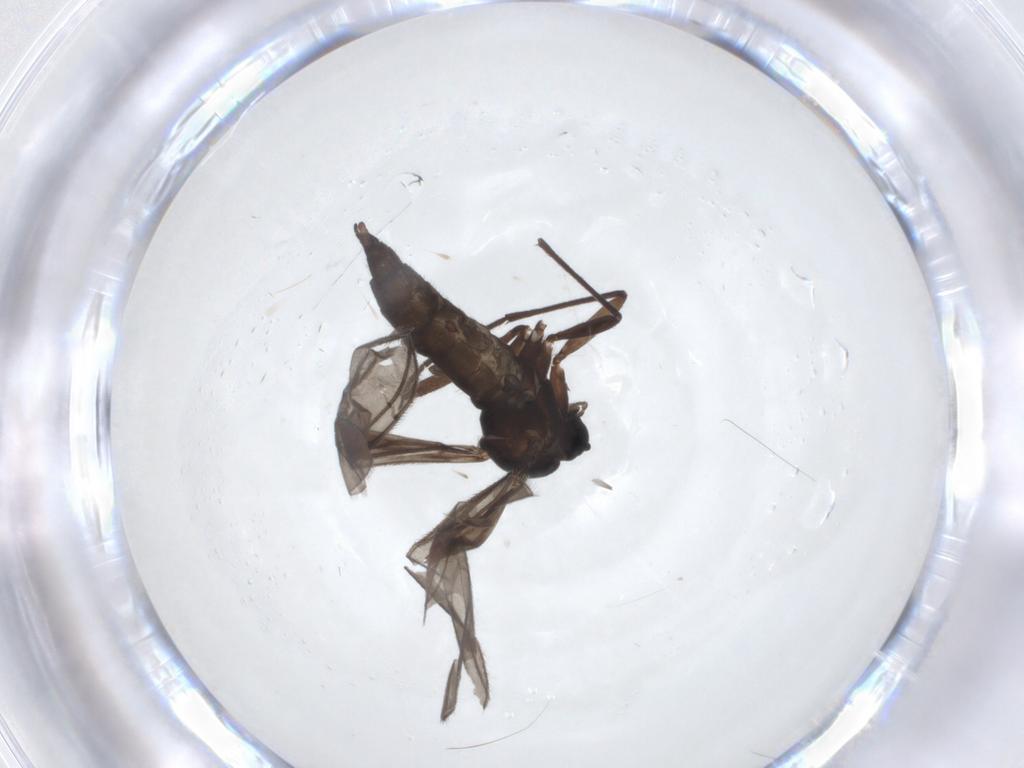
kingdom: Animalia
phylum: Arthropoda
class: Insecta
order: Diptera
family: Sciaridae
